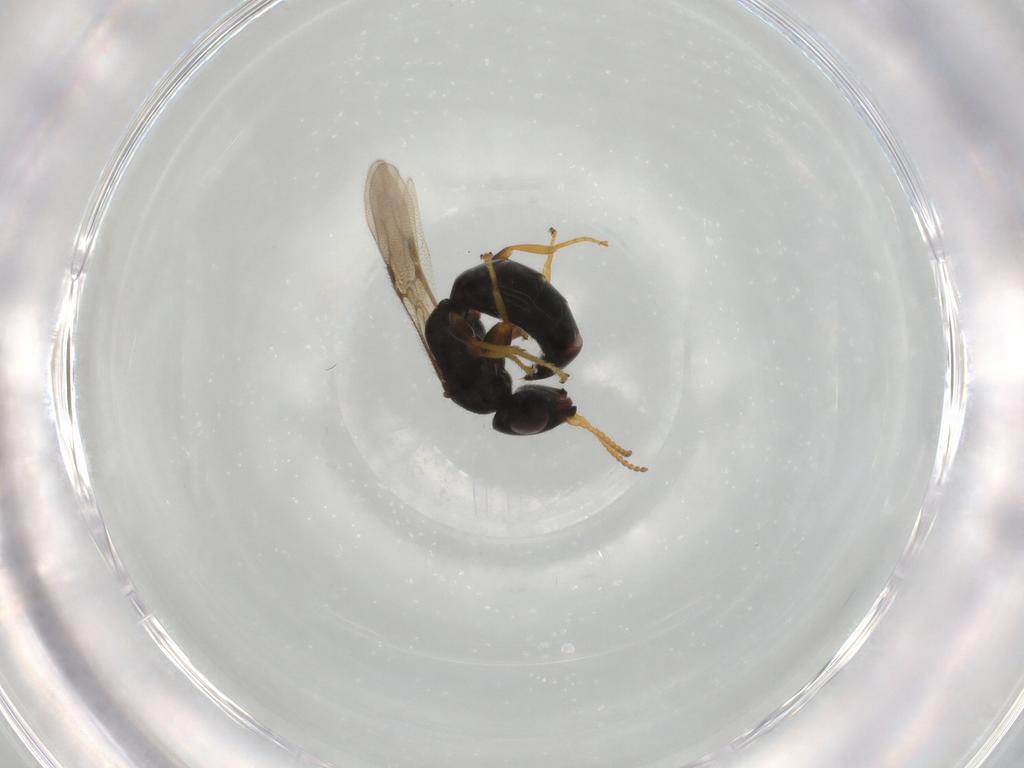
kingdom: Animalia
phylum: Arthropoda
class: Insecta
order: Hymenoptera
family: Bethylidae
